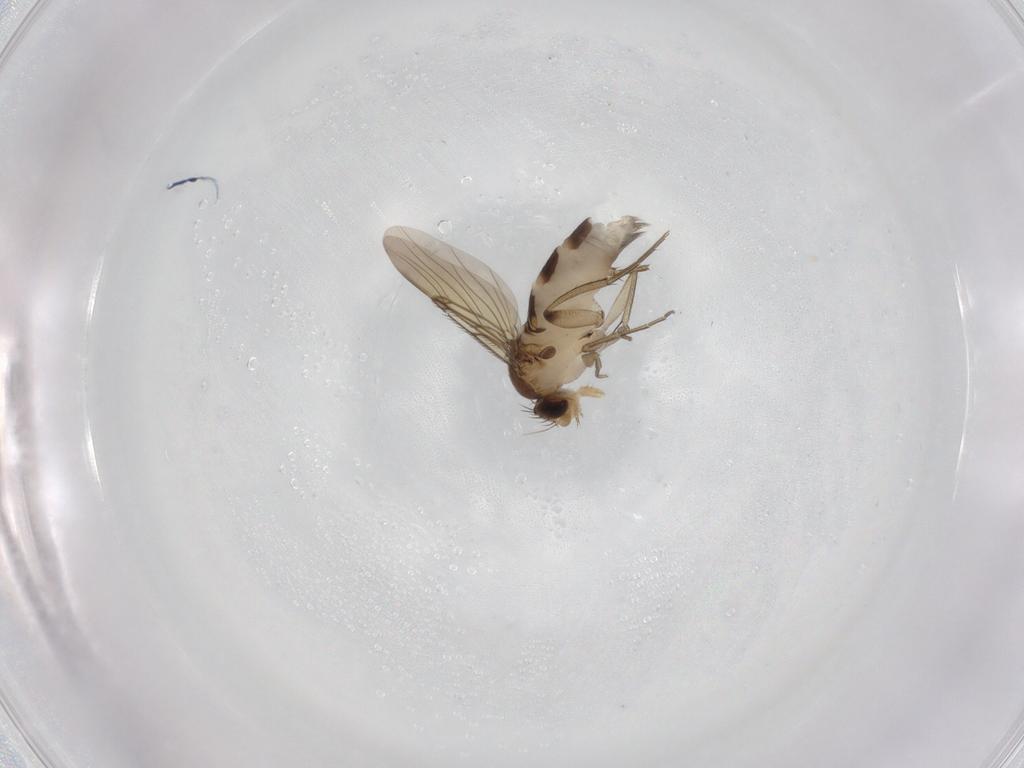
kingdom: Animalia
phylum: Arthropoda
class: Insecta
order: Diptera
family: Phoridae
